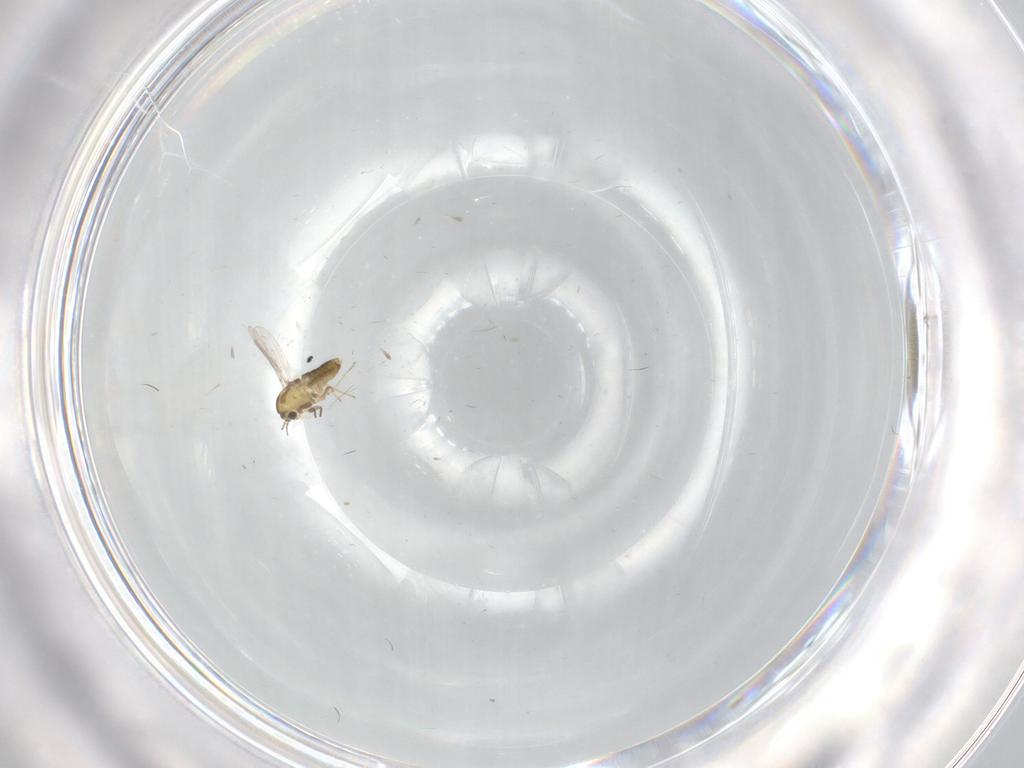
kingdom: Animalia
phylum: Arthropoda
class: Insecta
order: Diptera
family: Chironomidae
